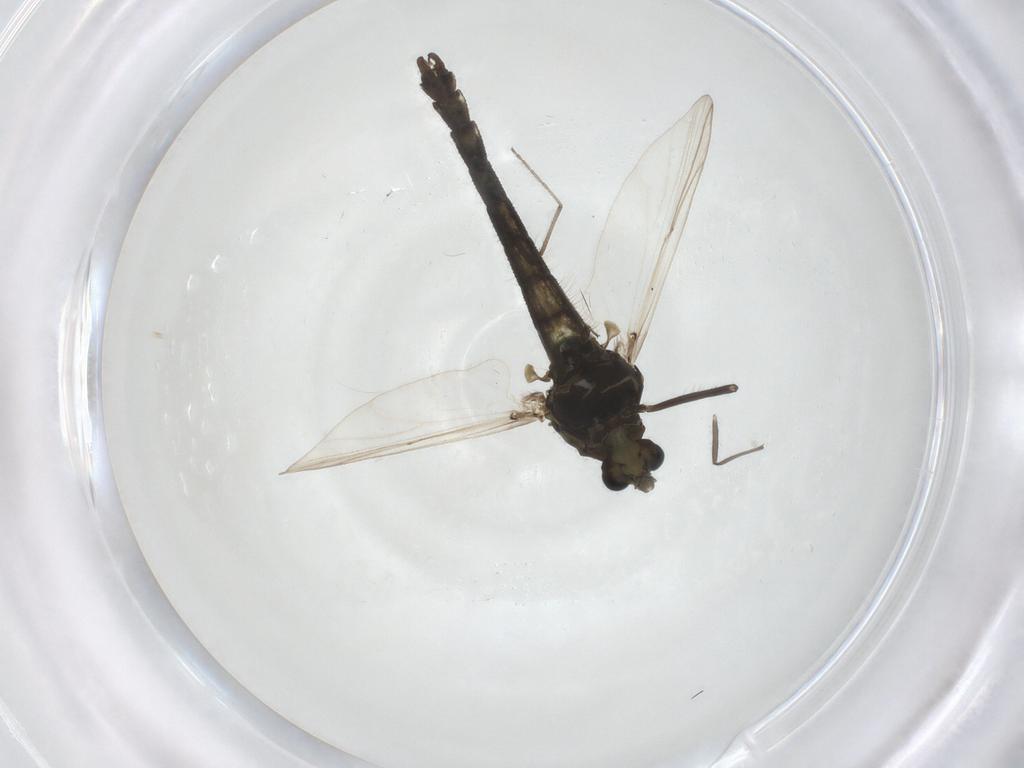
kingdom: Animalia
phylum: Arthropoda
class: Insecta
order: Diptera
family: Chironomidae
